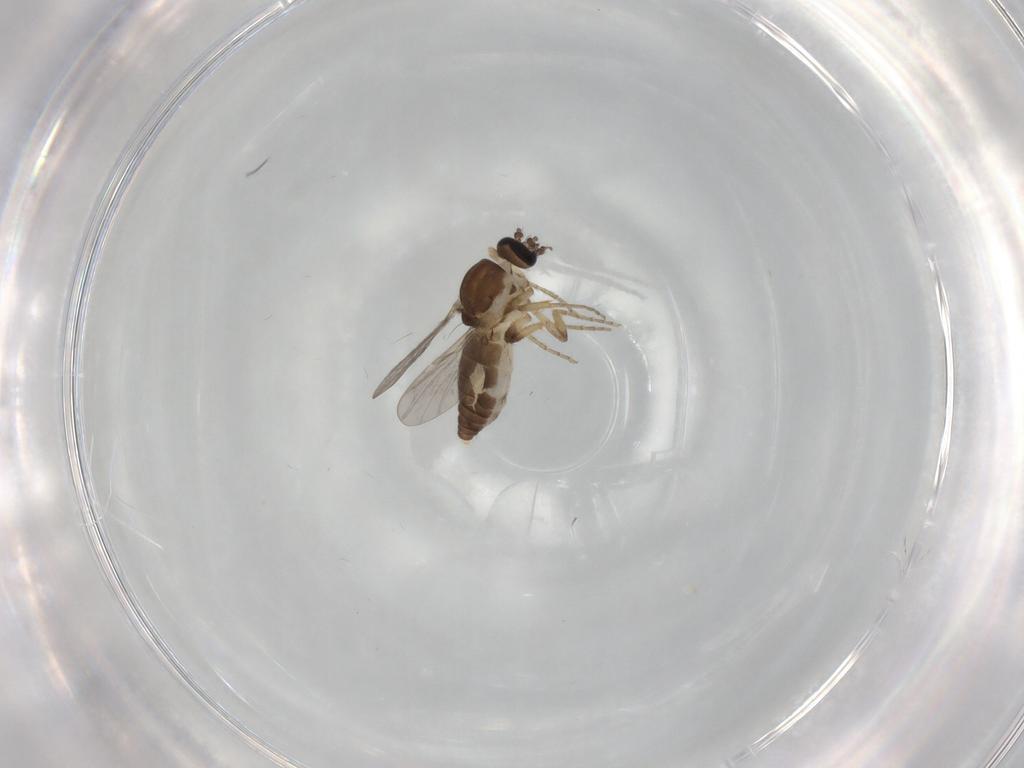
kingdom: Animalia
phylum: Arthropoda
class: Insecta
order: Diptera
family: Ceratopogonidae
